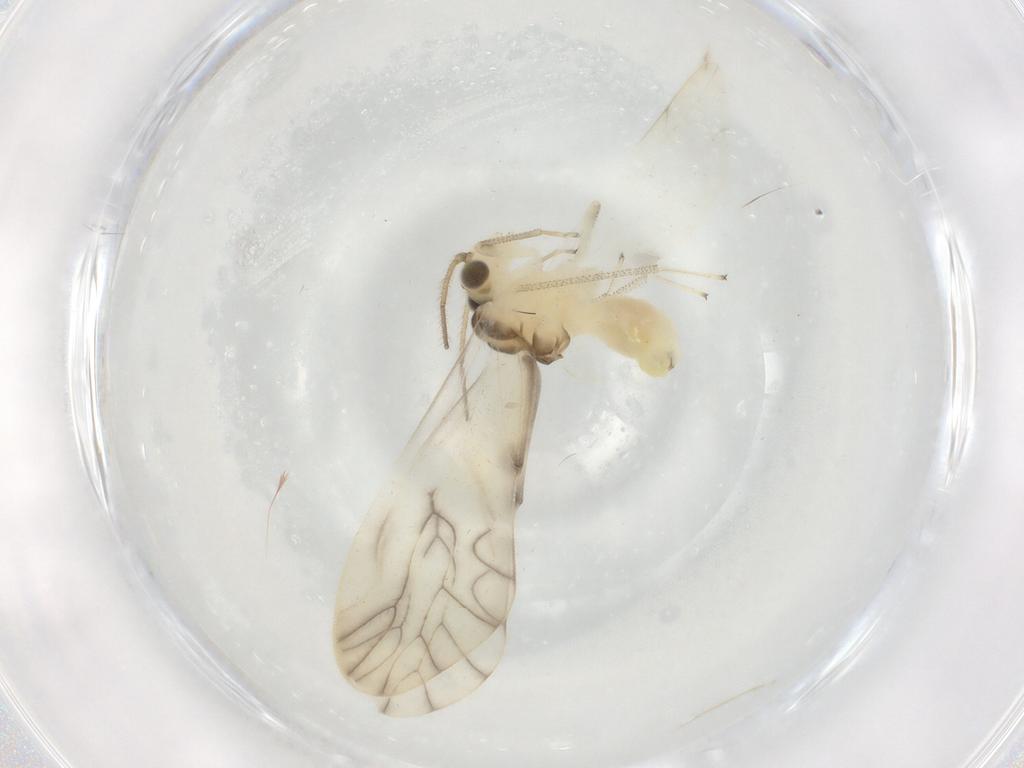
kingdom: Animalia
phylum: Arthropoda
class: Insecta
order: Psocodea
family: Caeciliusidae
